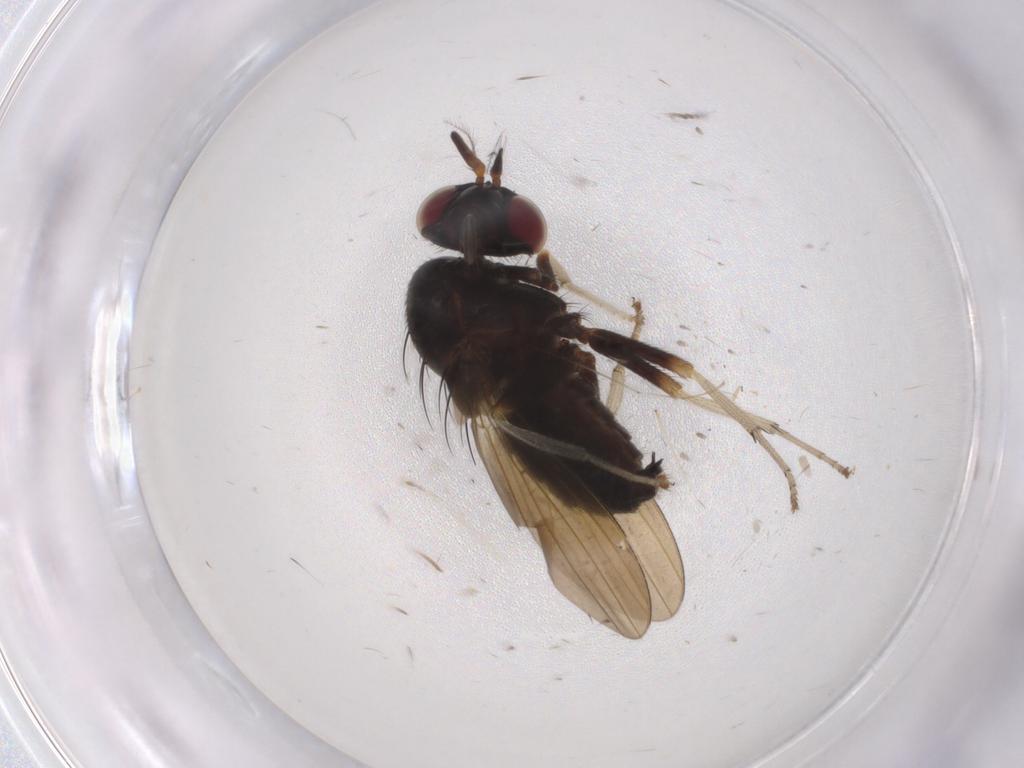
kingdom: Animalia
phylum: Arthropoda
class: Insecta
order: Diptera
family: Lauxaniidae
